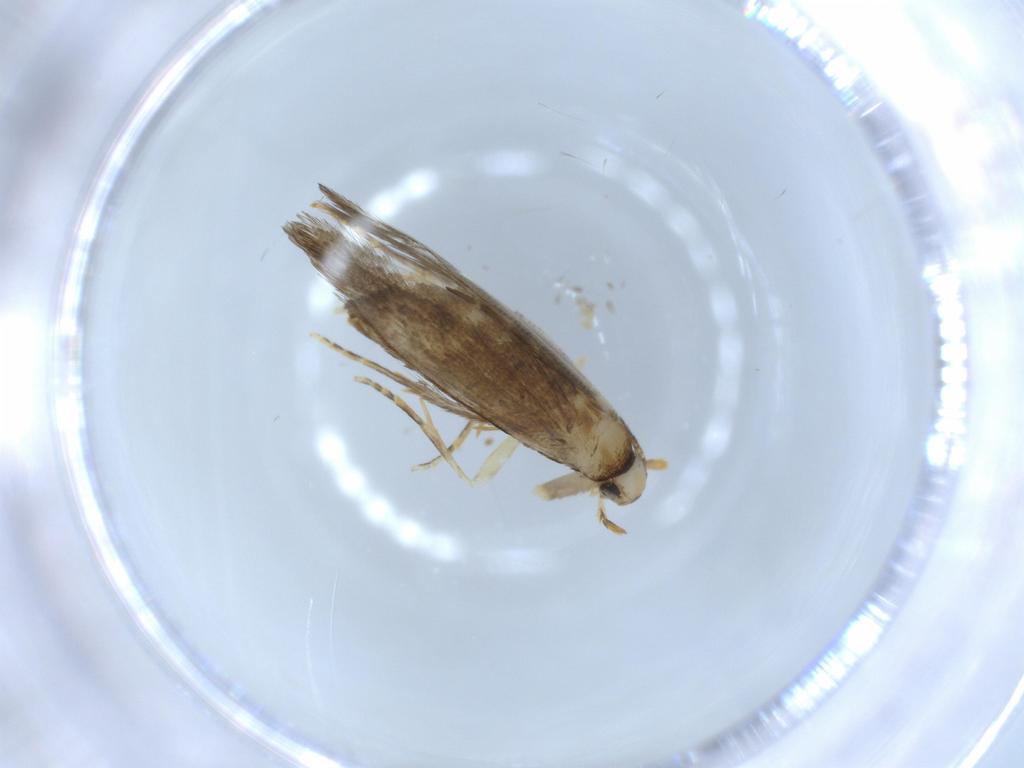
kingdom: Animalia
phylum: Arthropoda
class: Insecta
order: Lepidoptera
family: Tineidae
